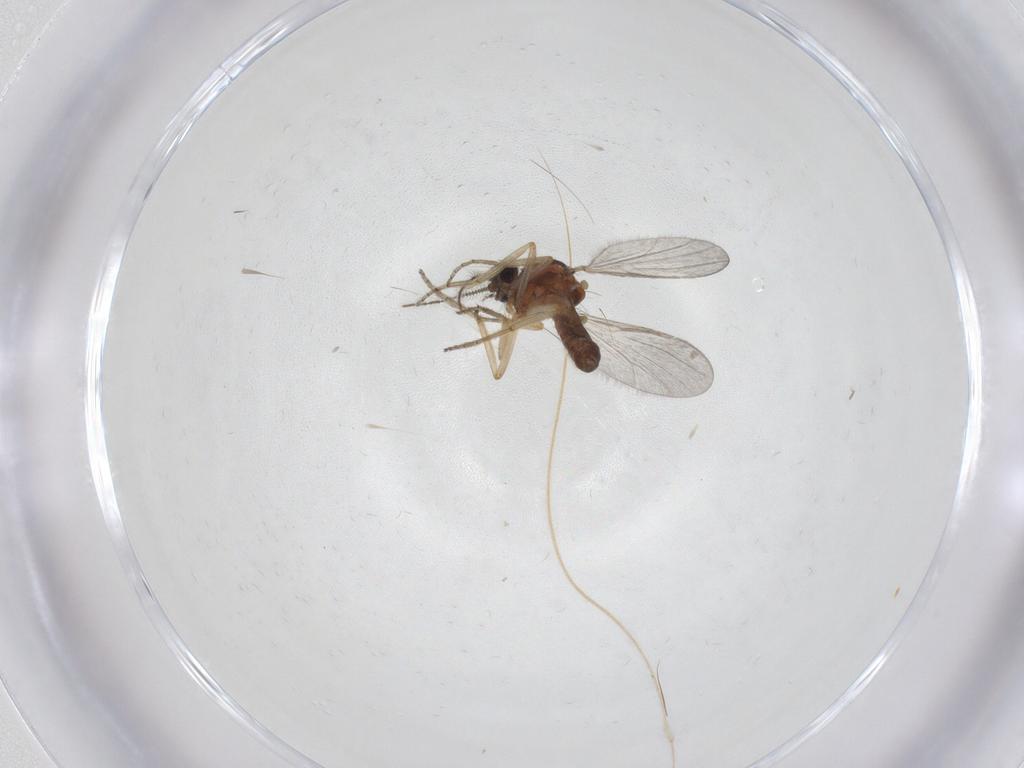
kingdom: Animalia
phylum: Arthropoda
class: Insecta
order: Diptera
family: Ceratopogonidae
